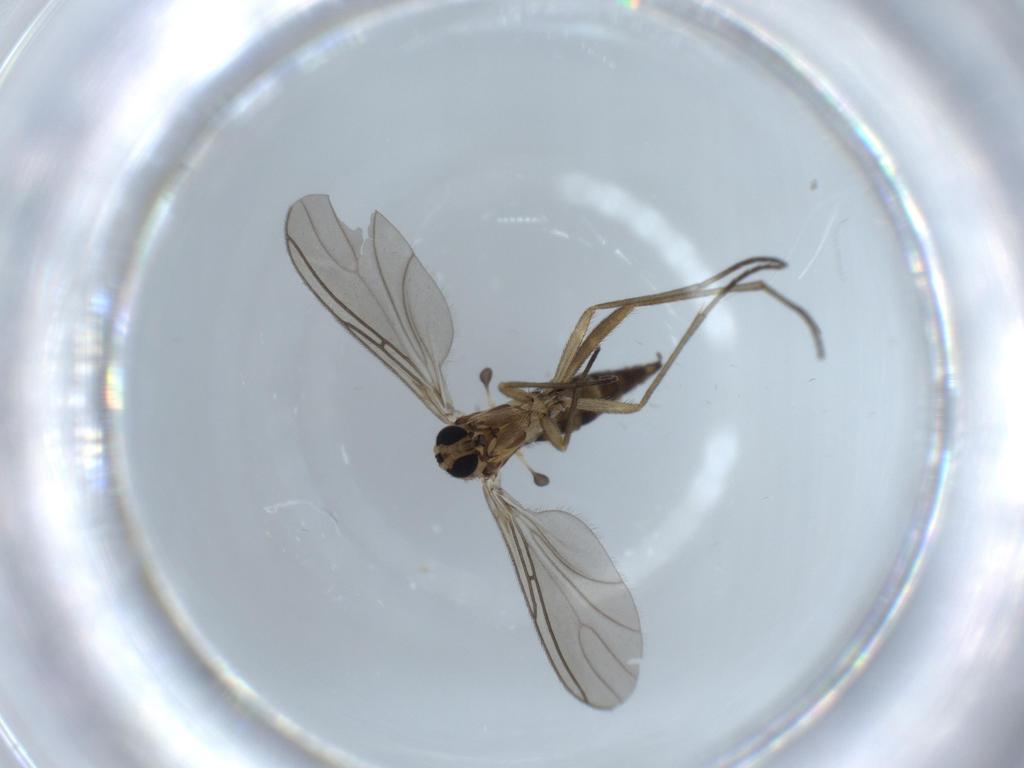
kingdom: Animalia
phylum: Arthropoda
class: Insecta
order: Diptera
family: Sciaridae
